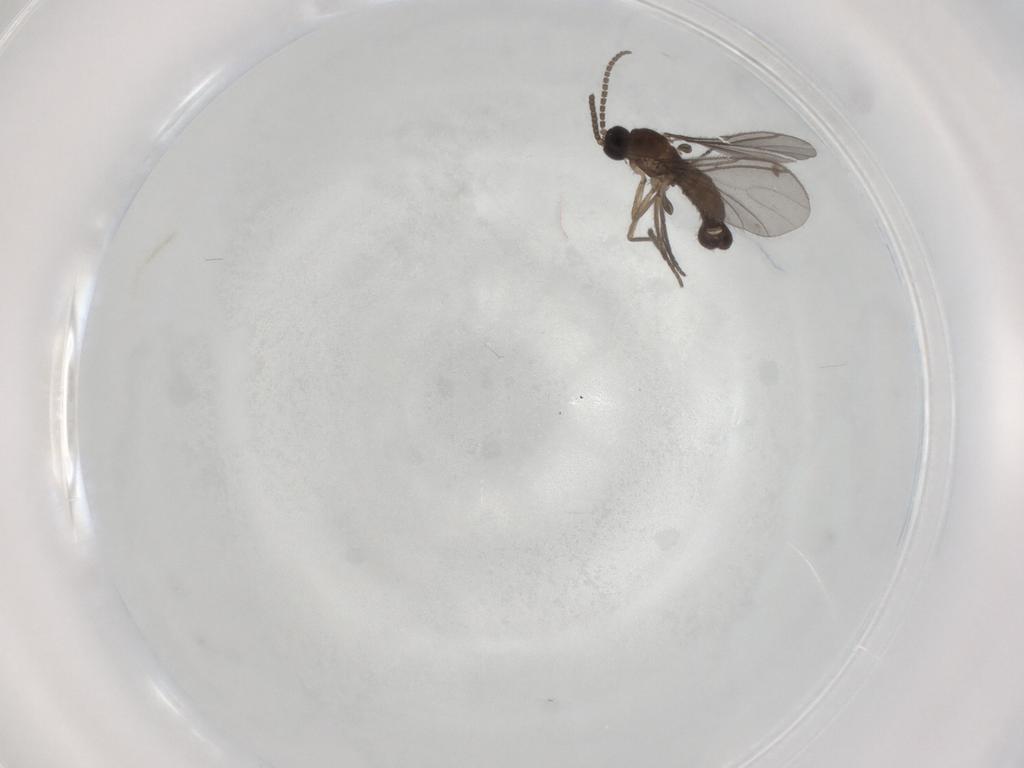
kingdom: Animalia
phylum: Arthropoda
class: Insecta
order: Diptera
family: Sciaridae
